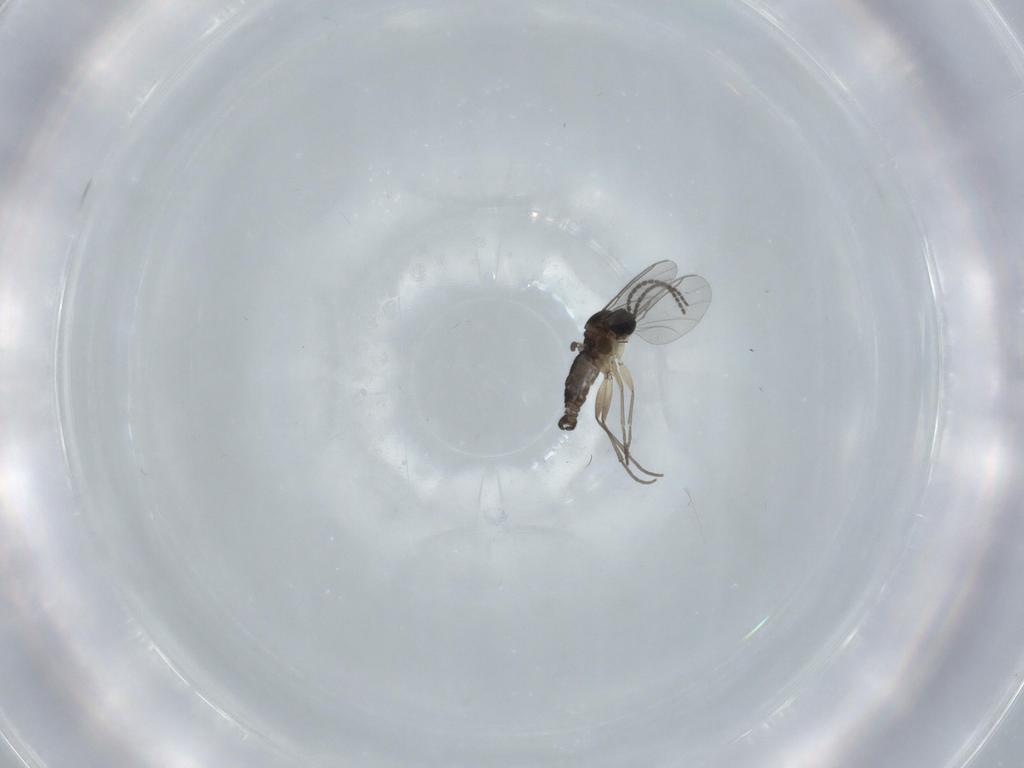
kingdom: Animalia
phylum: Arthropoda
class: Insecta
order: Diptera
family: Sciaridae
